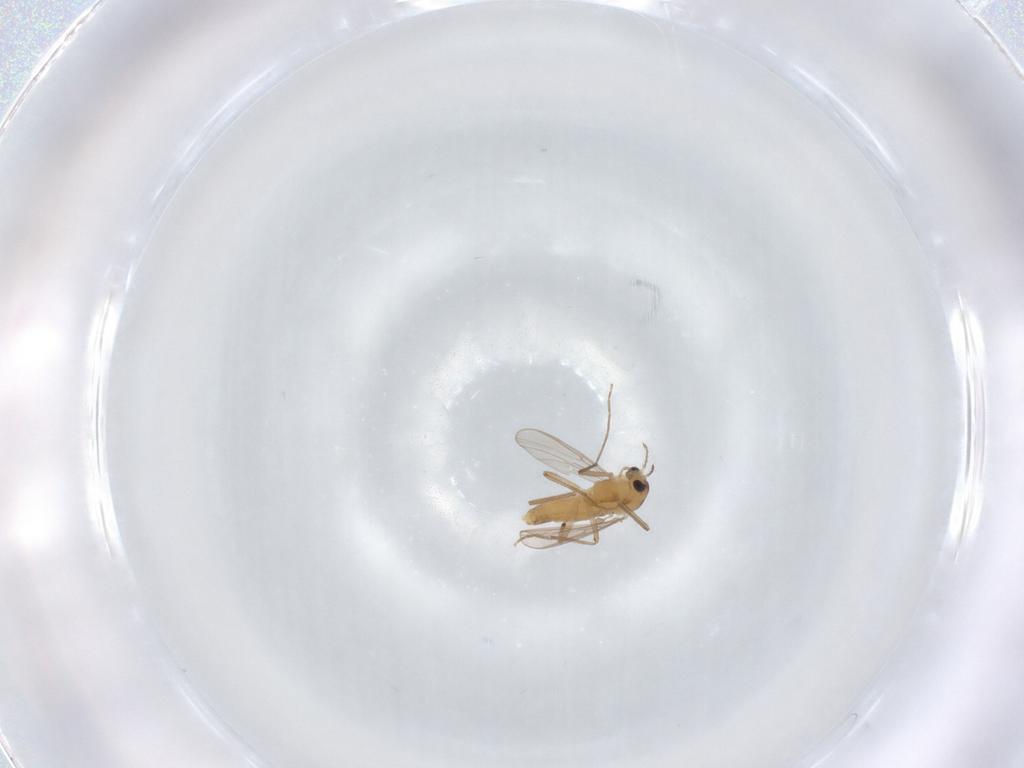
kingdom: Animalia
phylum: Arthropoda
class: Insecta
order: Diptera
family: Chironomidae
